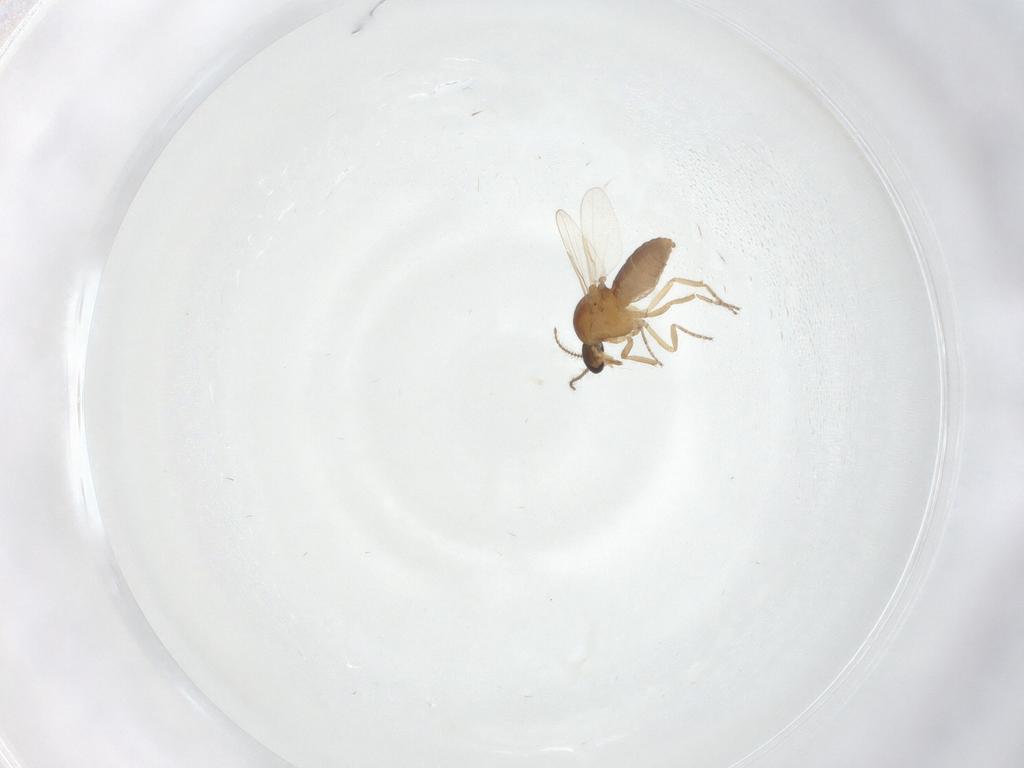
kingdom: Animalia
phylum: Arthropoda
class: Insecta
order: Diptera
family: Ceratopogonidae
